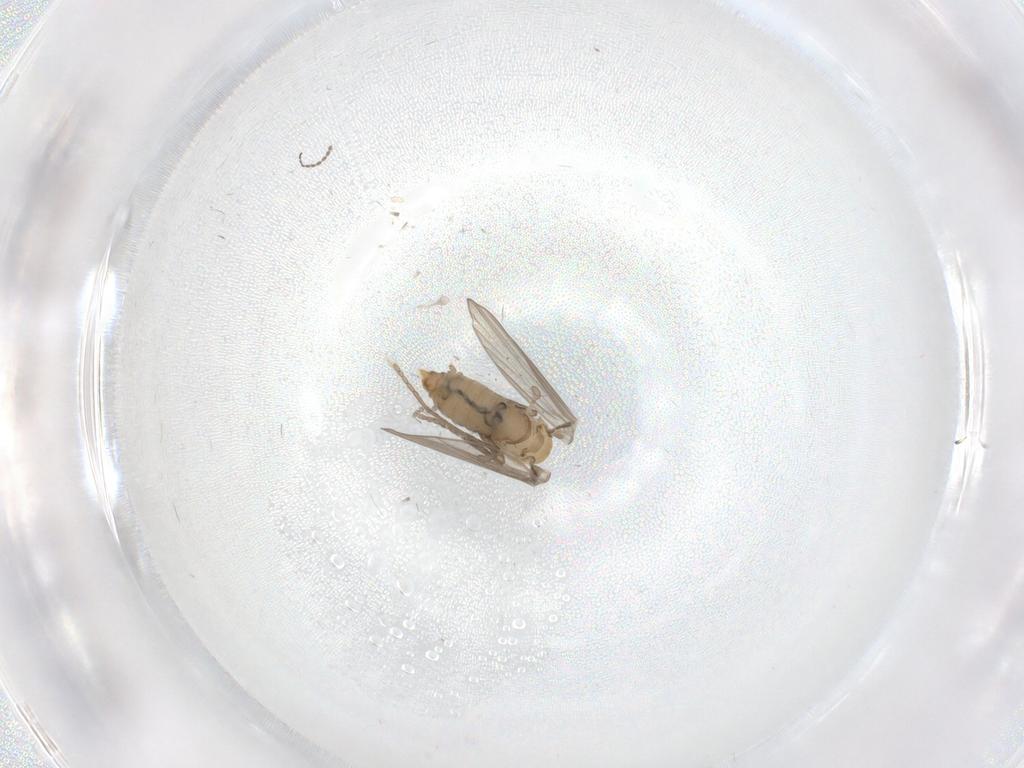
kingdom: Animalia
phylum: Arthropoda
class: Insecta
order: Diptera
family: Psychodidae
